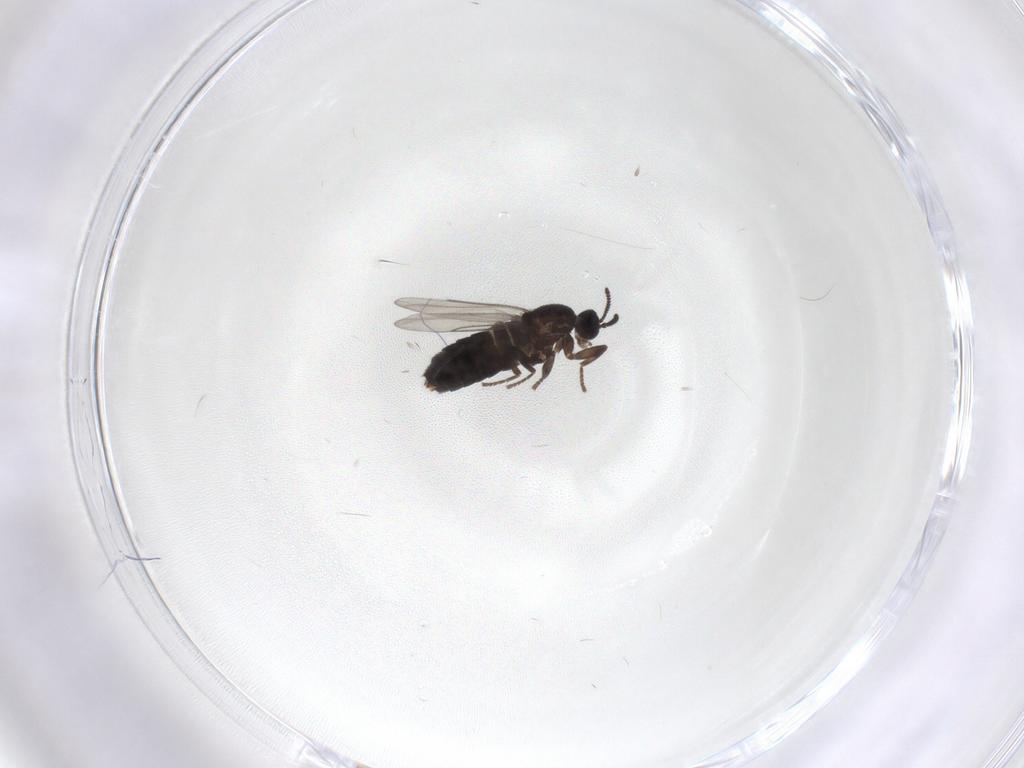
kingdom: Animalia
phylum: Arthropoda
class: Insecta
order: Diptera
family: Scatopsidae
